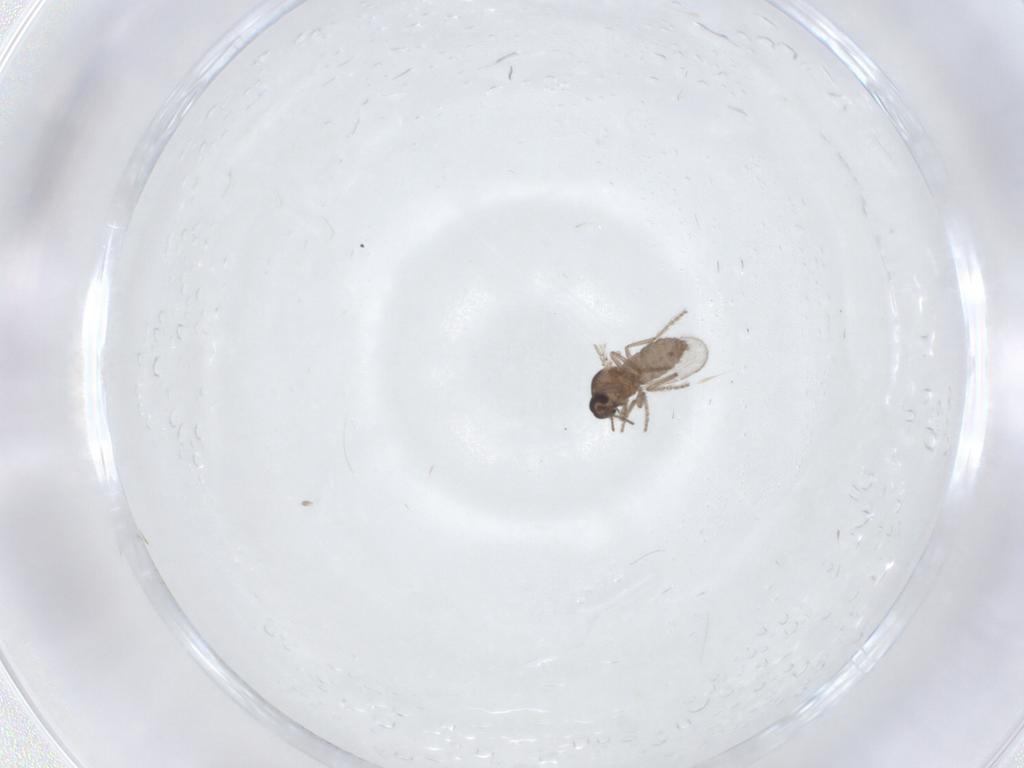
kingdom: Animalia
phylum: Arthropoda
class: Insecta
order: Diptera
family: Ceratopogonidae
